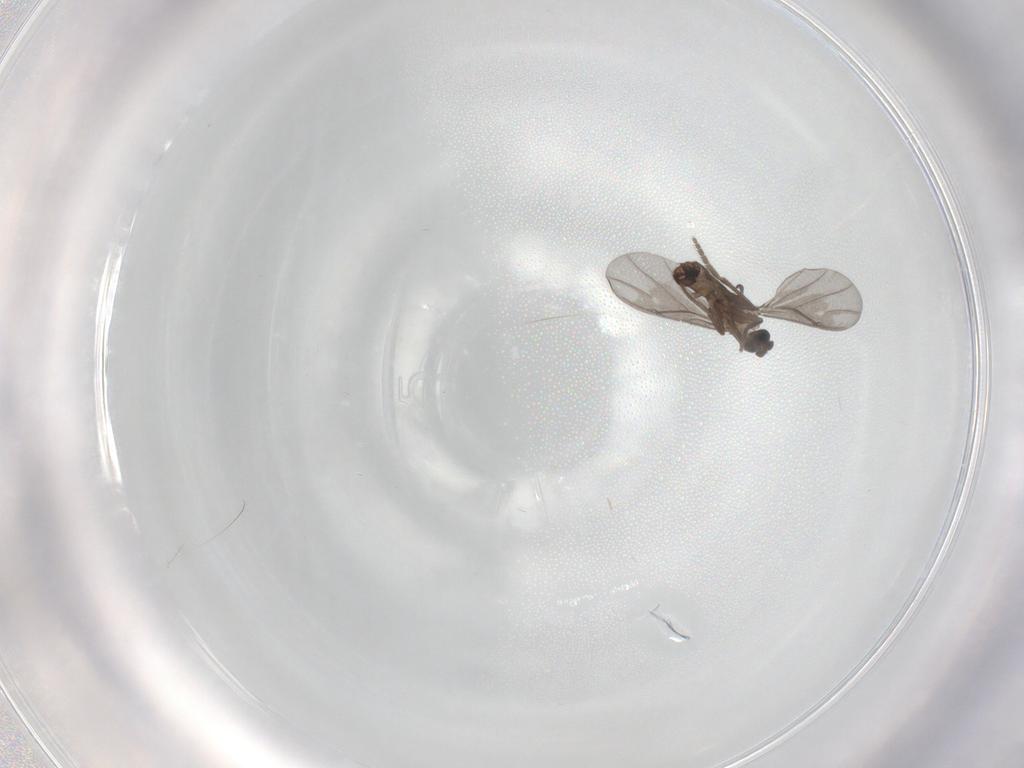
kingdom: Animalia
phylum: Arthropoda
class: Insecta
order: Diptera
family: Phoridae
